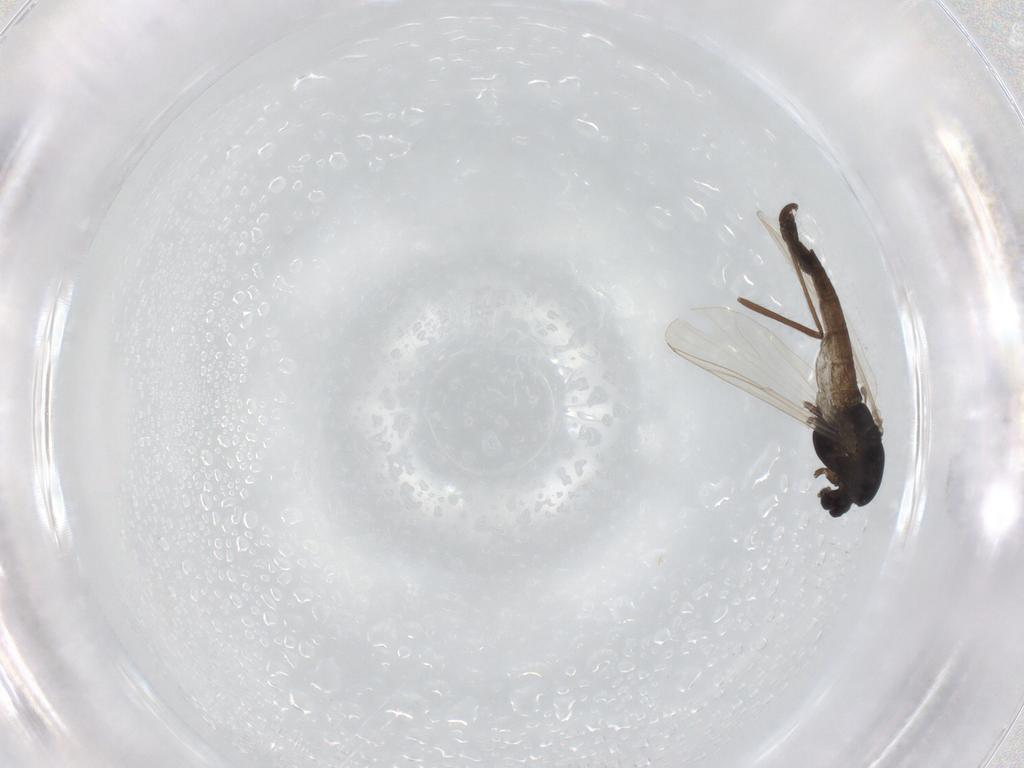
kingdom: Animalia
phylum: Arthropoda
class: Insecta
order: Diptera
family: Chironomidae
